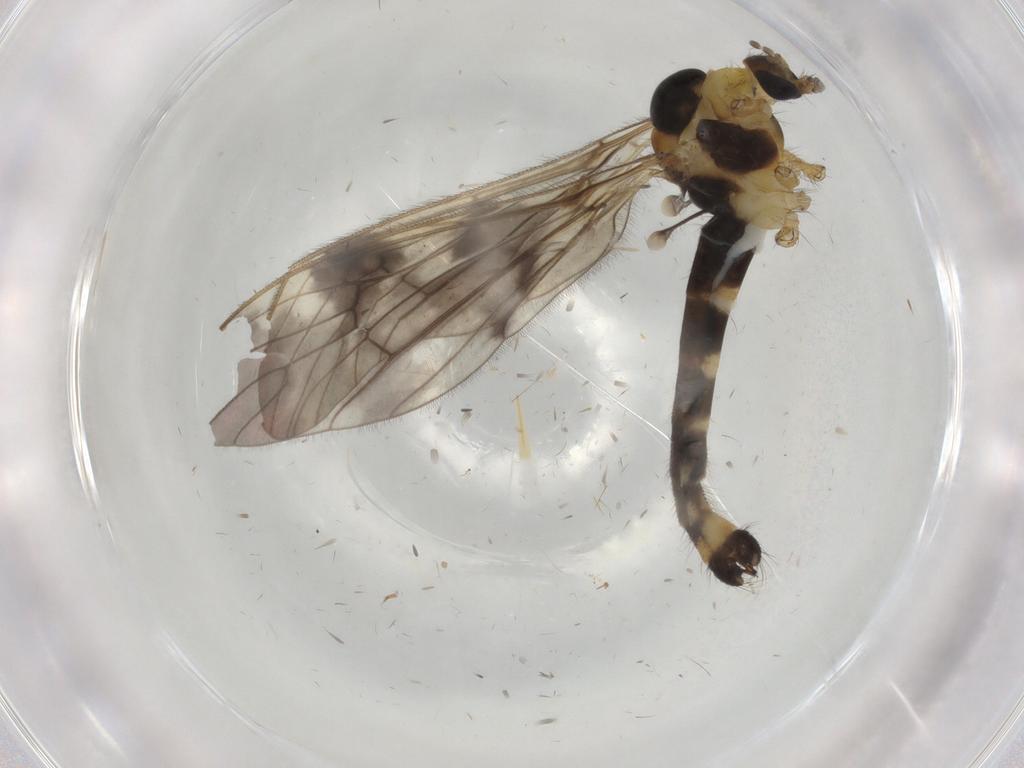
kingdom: Animalia
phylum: Arthropoda
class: Insecta
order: Diptera
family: Limoniidae
